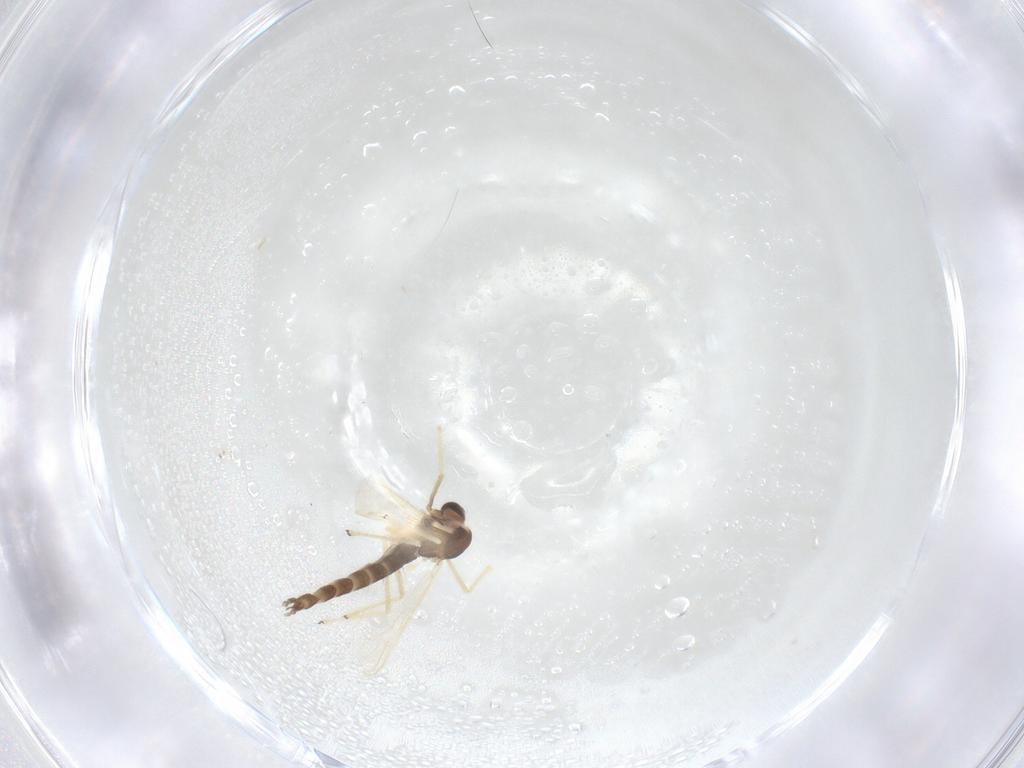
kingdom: Animalia
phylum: Arthropoda
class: Insecta
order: Diptera
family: Chironomidae
